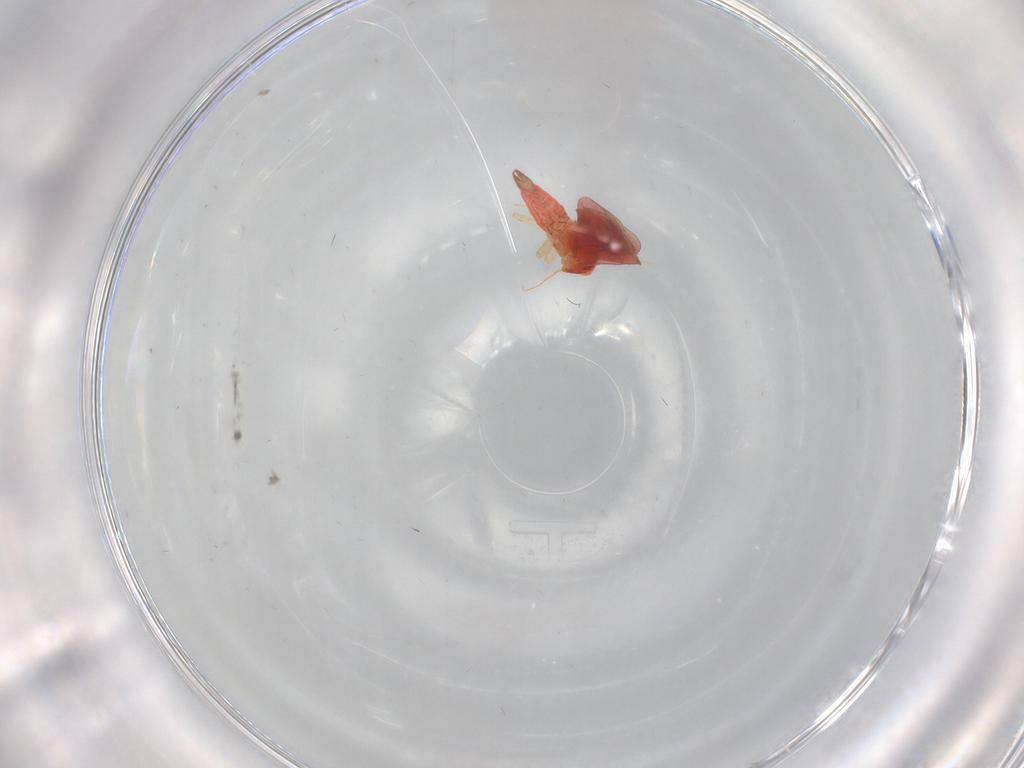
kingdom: Animalia
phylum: Arthropoda
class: Insecta
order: Hemiptera
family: Aleyrodidae
